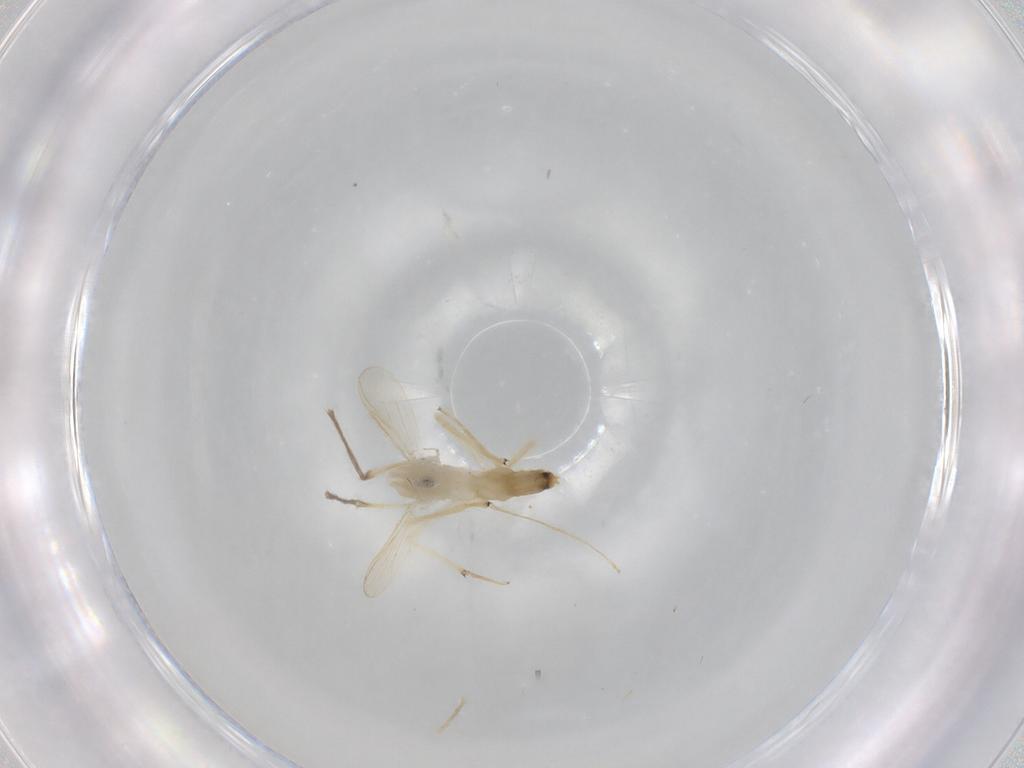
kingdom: Animalia
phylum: Arthropoda
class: Insecta
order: Diptera
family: Chironomidae
